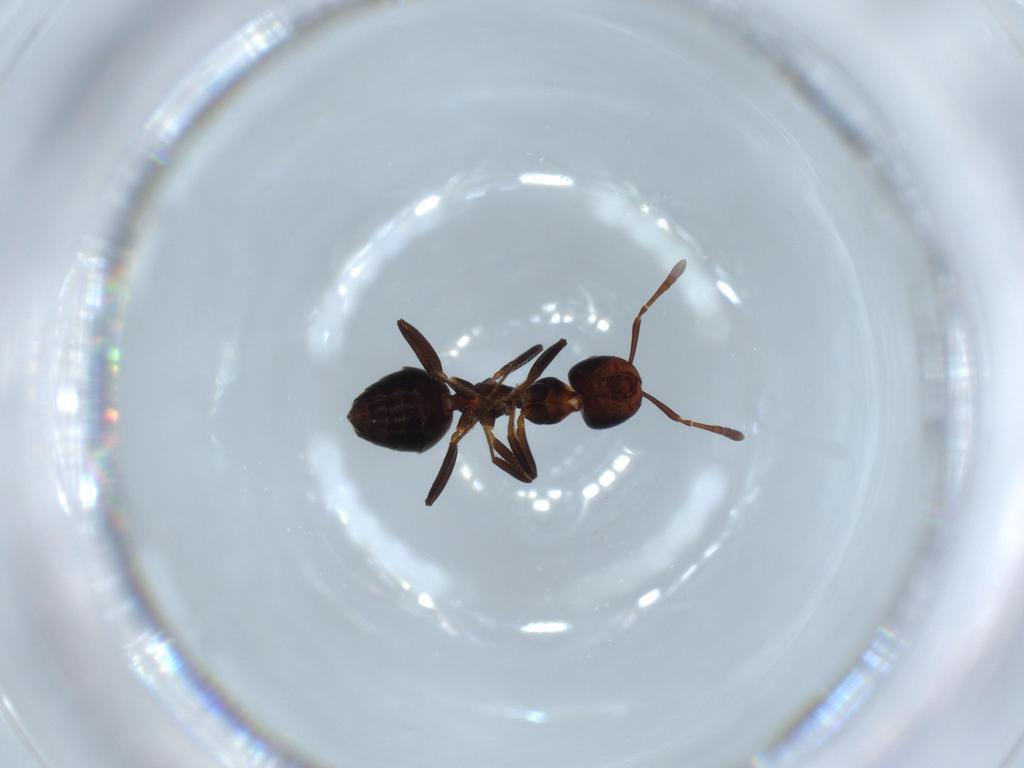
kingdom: Animalia
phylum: Arthropoda
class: Insecta
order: Hymenoptera
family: Formicidae
